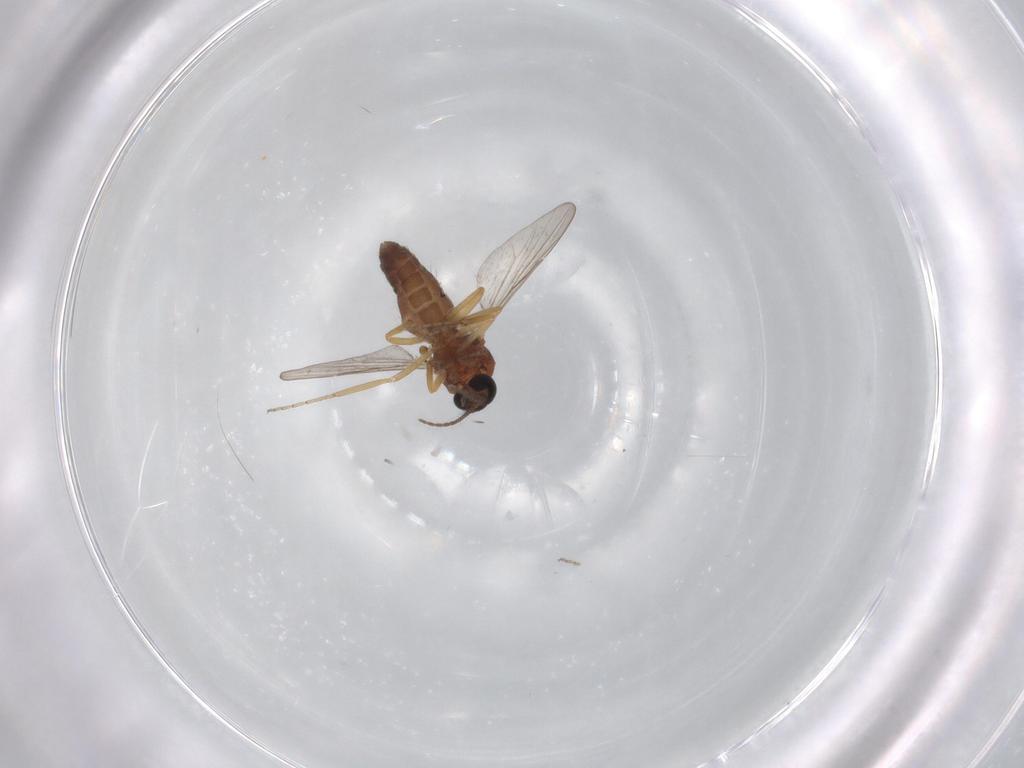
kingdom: Animalia
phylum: Arthropoda
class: Insecta
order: Diptera
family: Ceratopogonidae
